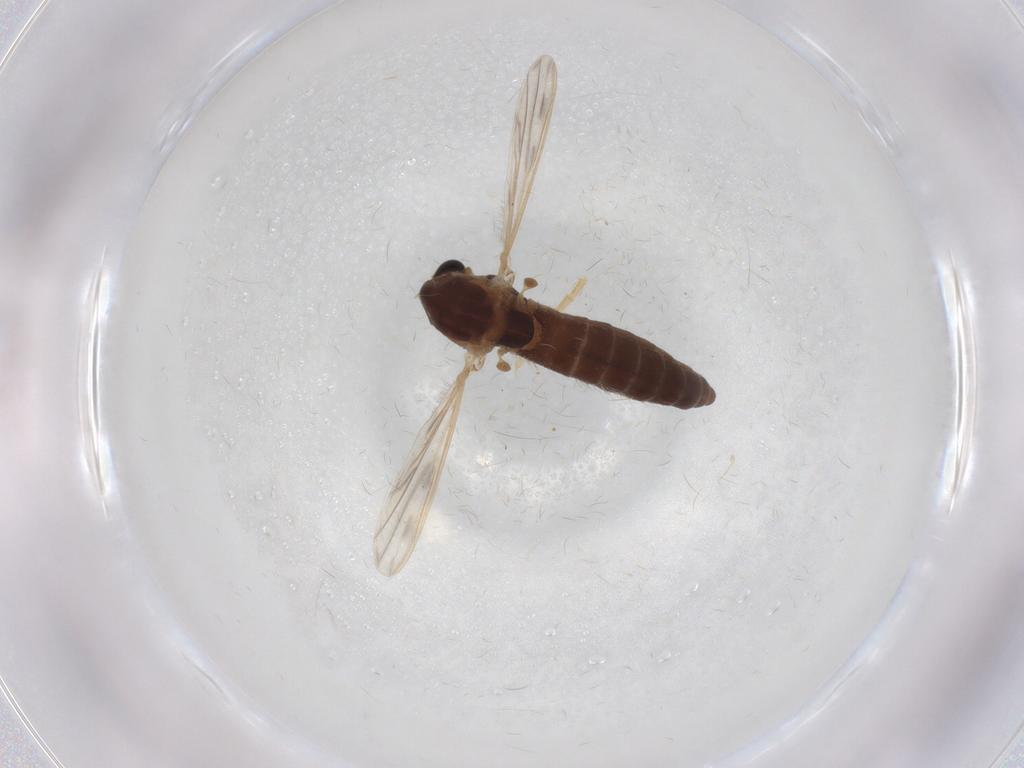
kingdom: Animalia
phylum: Arthropoda
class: Insecta
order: Diptera
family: Chironomidae
